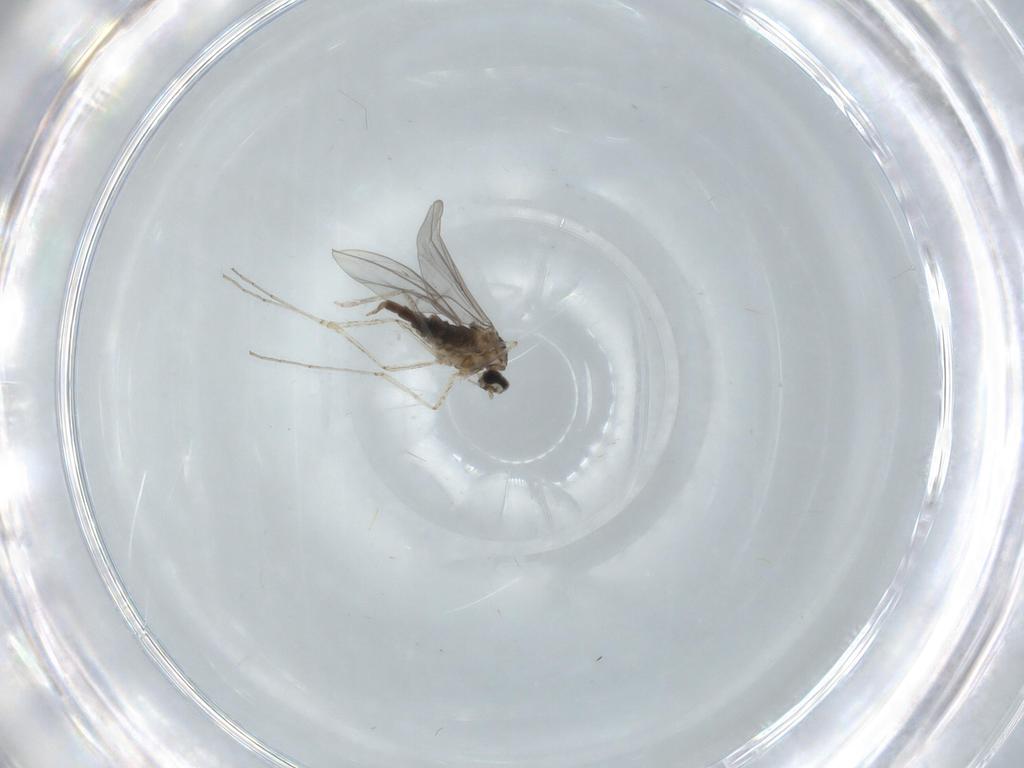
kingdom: Animalia
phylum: Arthropoda
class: Insecta
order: Diptera
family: Cecidomyiidae
